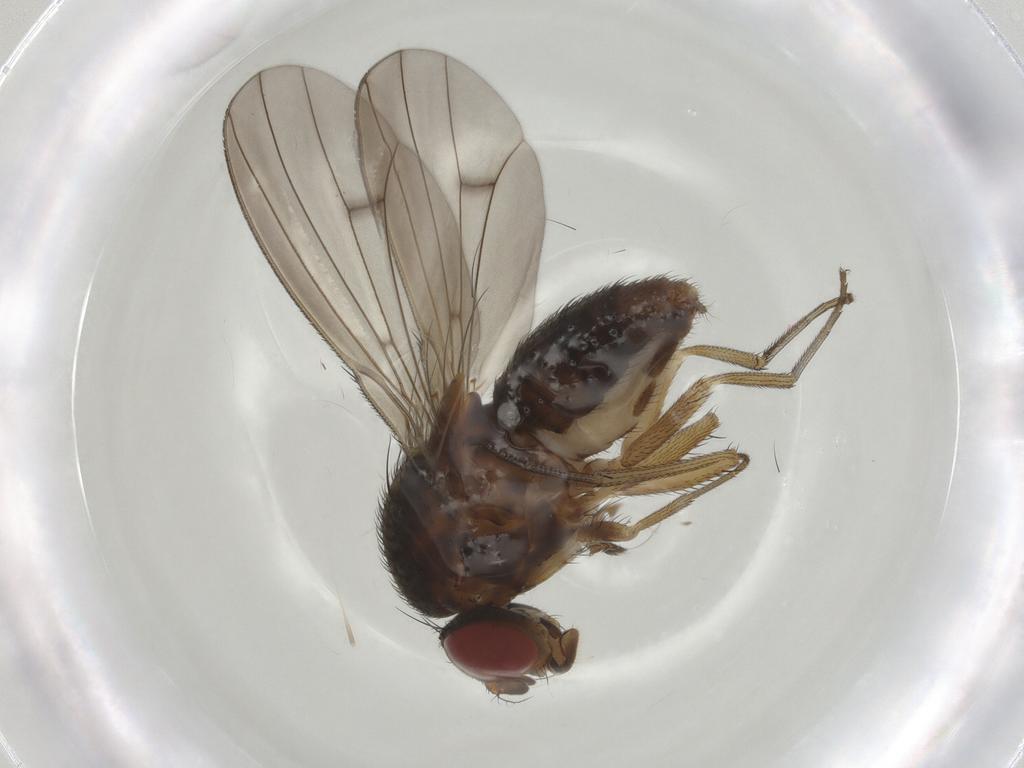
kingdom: Animalia
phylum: Arthropoda
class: Insecta
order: Diptera
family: Curtonotidae
